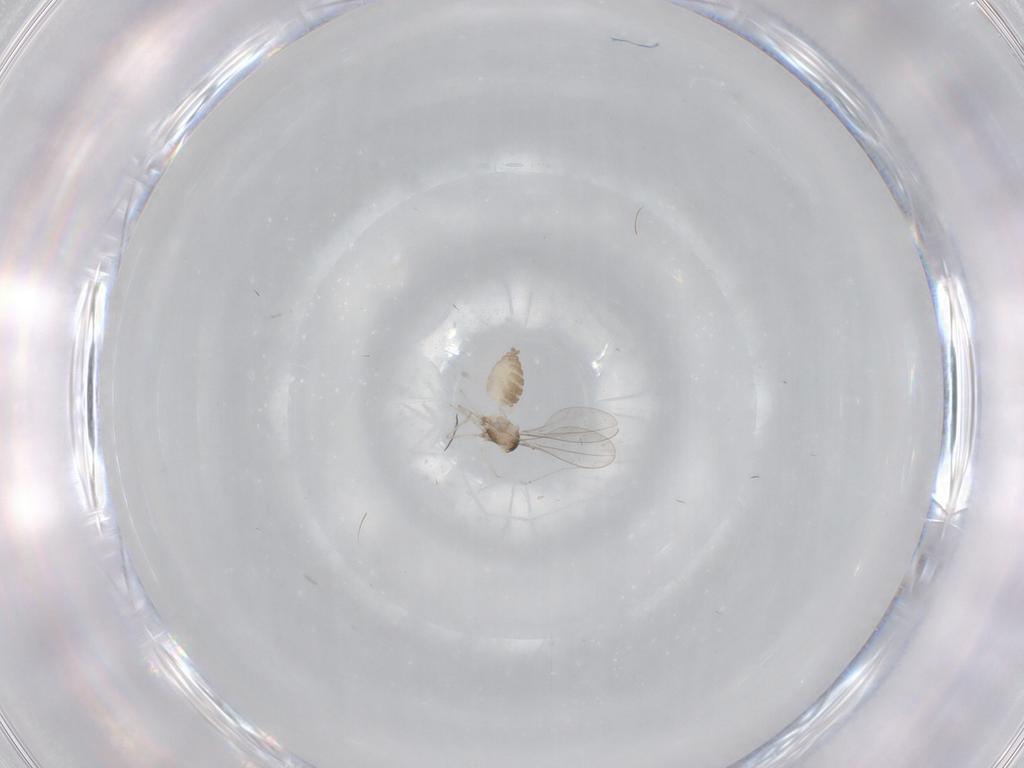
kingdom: Animalia
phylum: Arthropoda
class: Insecta
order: Diptera
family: Cecidomyiidae
